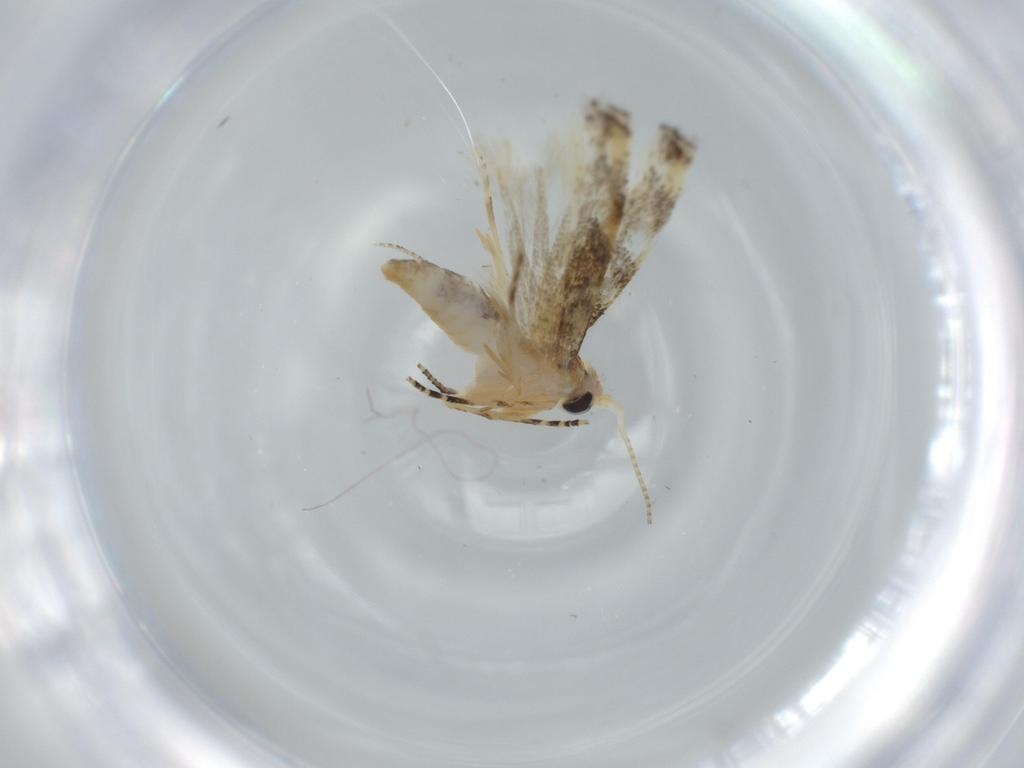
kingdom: Animalia
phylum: Arthropoda
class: Insecta
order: Lepidoptera
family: Bucculatricidae
